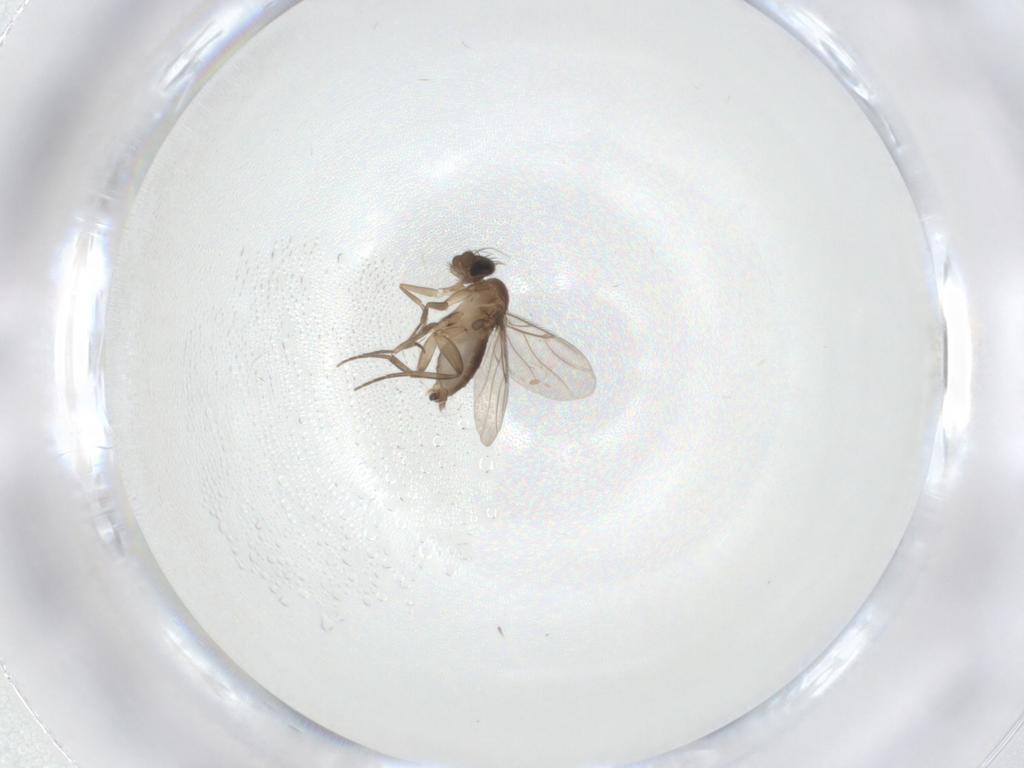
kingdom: Animalia
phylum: Arthropoda
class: Insecta
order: Diptera
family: Phoridae
